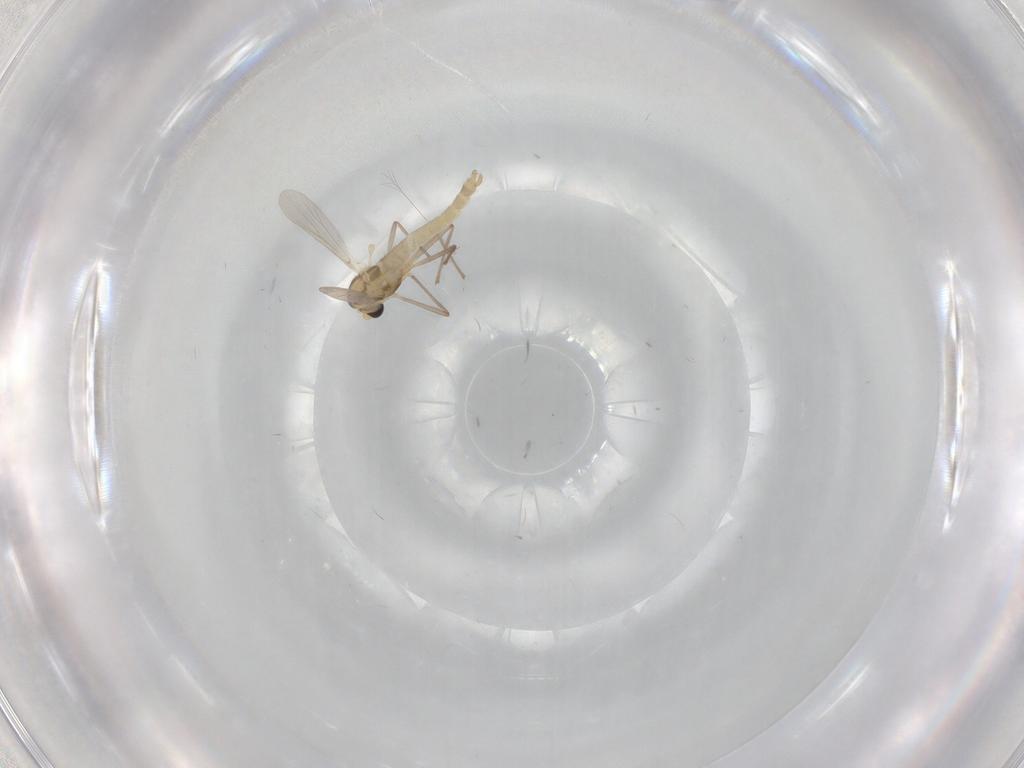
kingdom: Animalia
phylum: Arthropoda
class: Insecta
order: Diptera
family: Chironomidae
